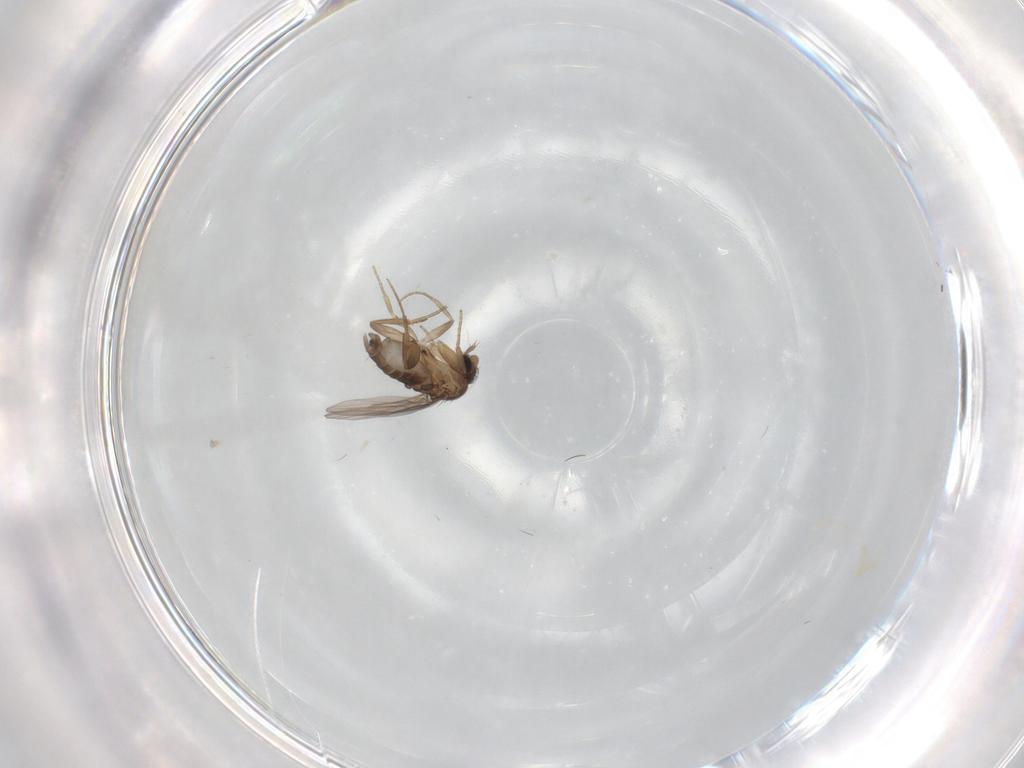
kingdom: Animalia
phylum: Arthropoda
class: Insecta
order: Diptera
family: Phoridae
